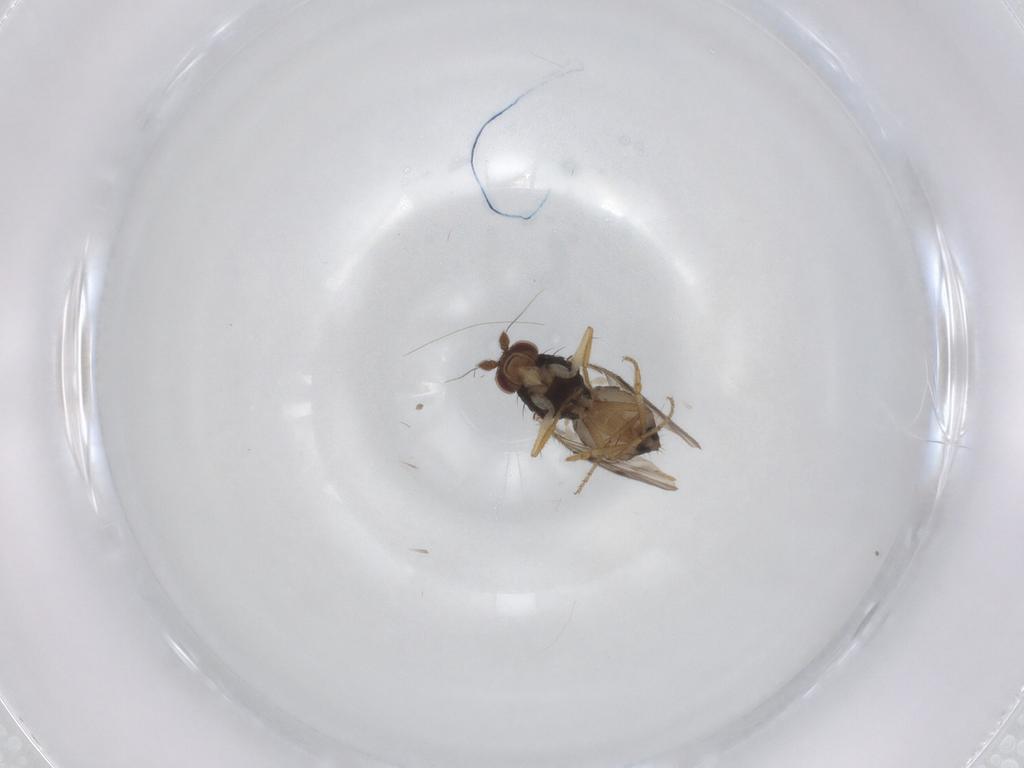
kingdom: Animalia
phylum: Arthropoda
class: Insecta
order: Diptera
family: Sphaeroceridae
